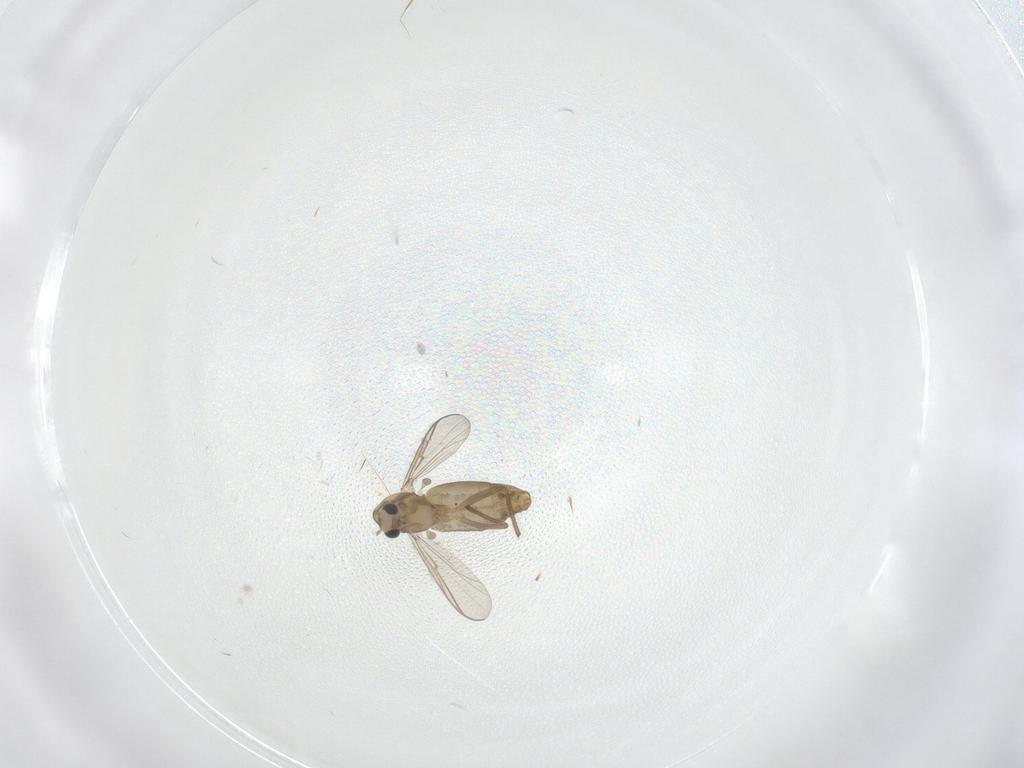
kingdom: Animalia
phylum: Arthropoda
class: Insecta
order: Diptera
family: Chironomidae
